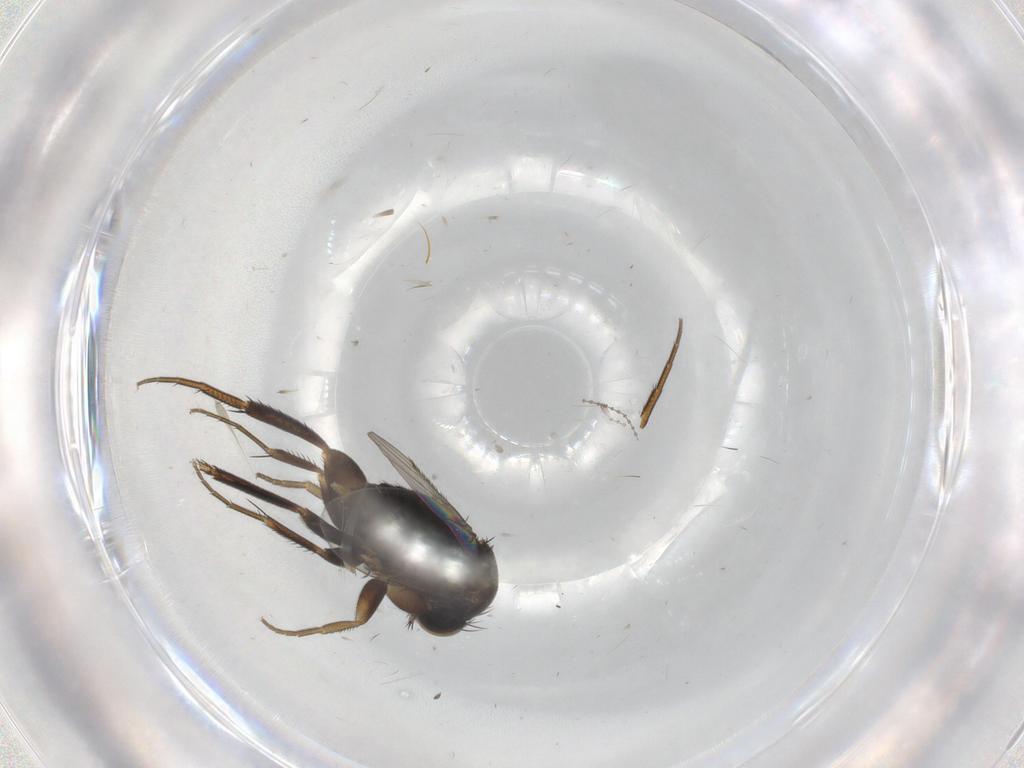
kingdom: Animalia
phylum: Arthropoda
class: Insecta
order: Diptera
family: Phoridae
